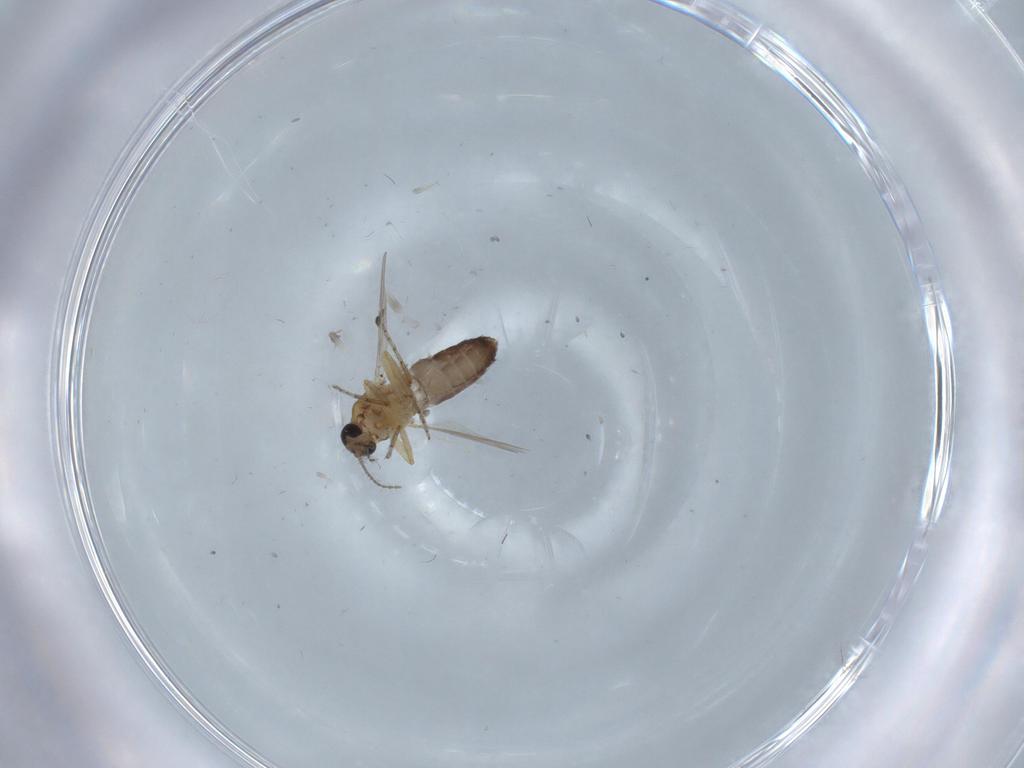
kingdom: Animalia
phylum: Arthropoda
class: Insecta
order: Diptera
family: Ceratopogonidae
